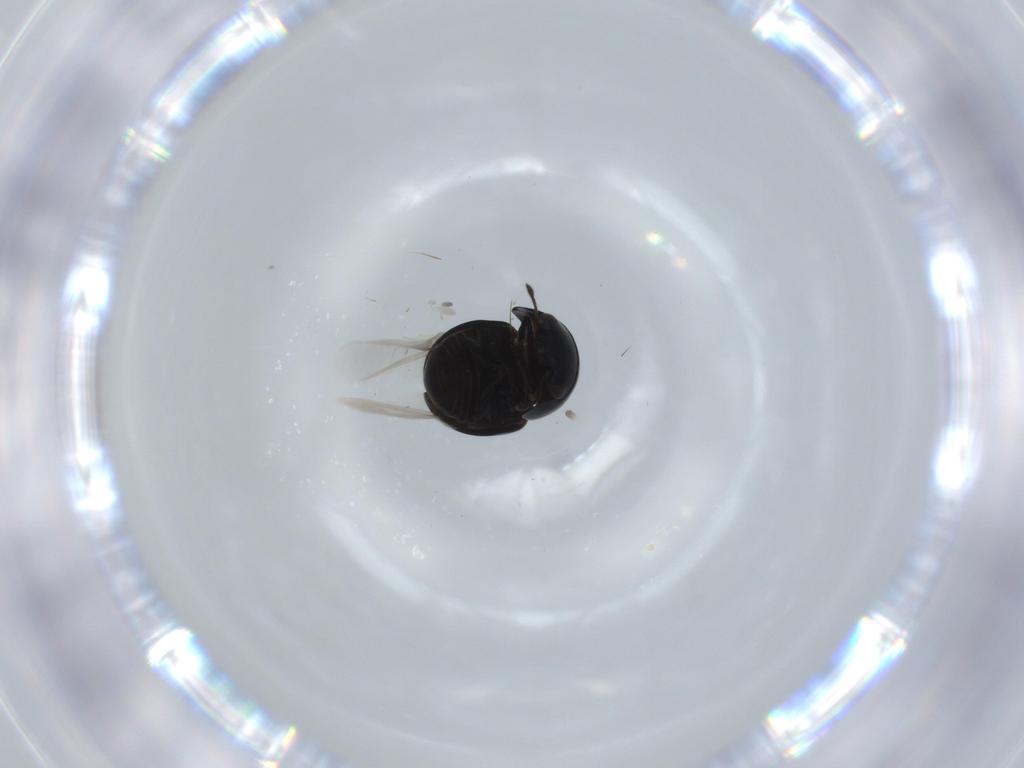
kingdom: Animalia
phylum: Arthropoda
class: Insecta
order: Coleoptera
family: Cybocephalidae
